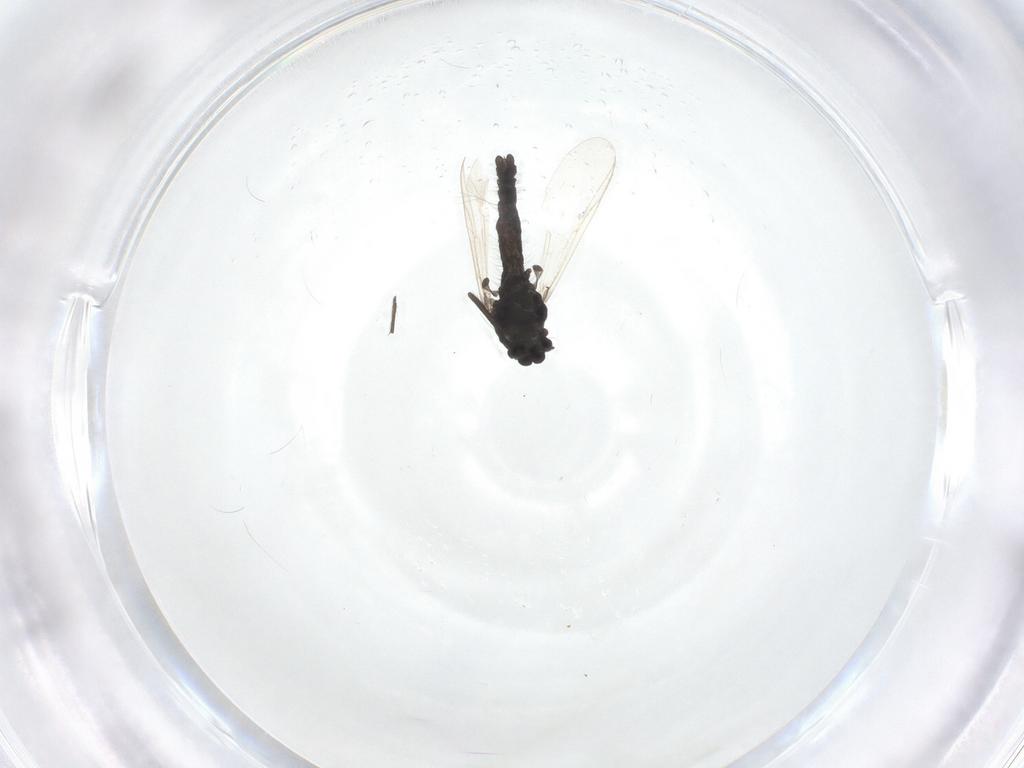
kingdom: Animalia
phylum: Arthropoda
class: Insecta
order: Diptera
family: Chironomidae
